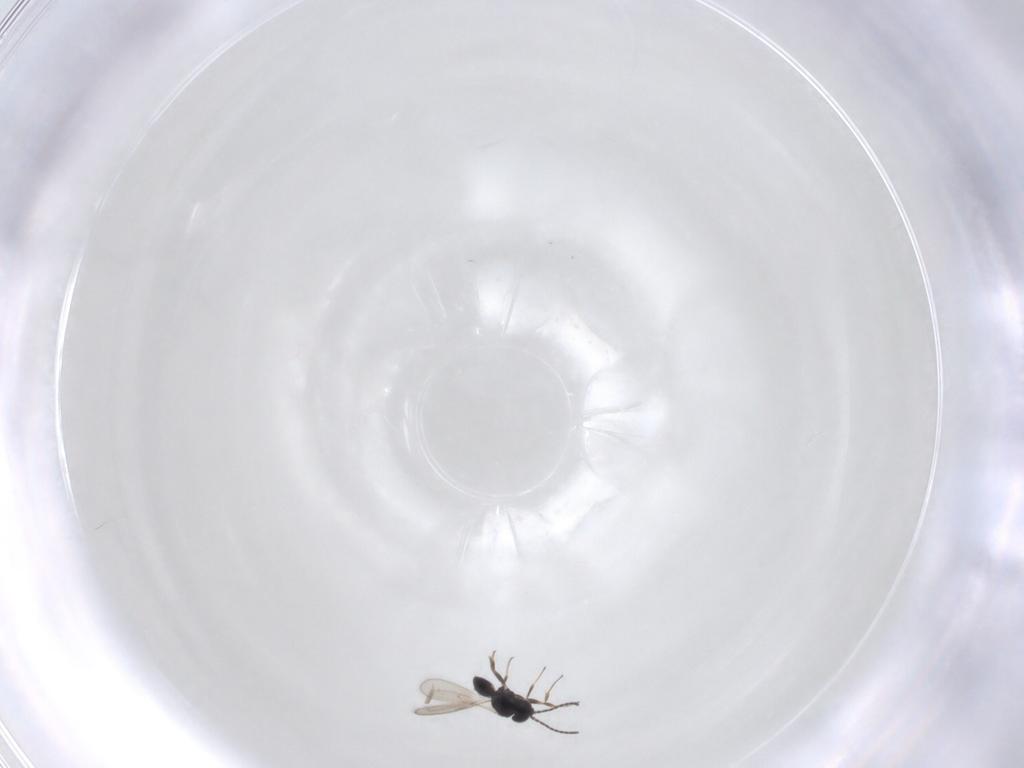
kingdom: Animalia
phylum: Arthropoda
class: Insecta
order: Hymenoptera
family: Scelionidae
